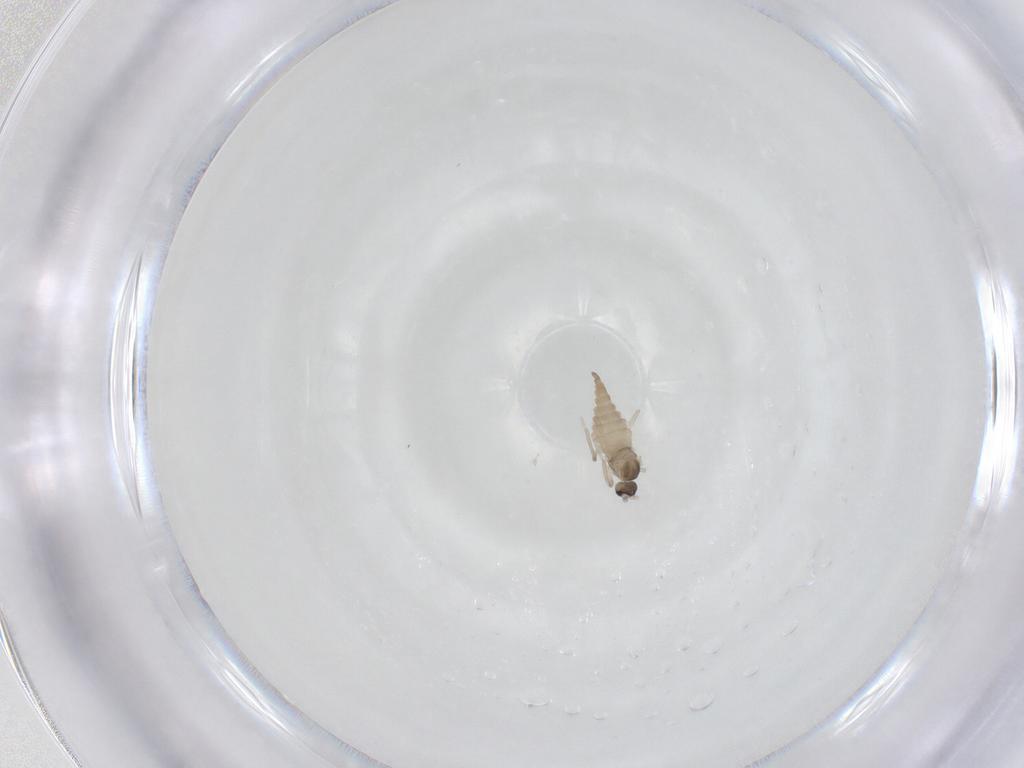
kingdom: Animalia
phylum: Arthropoda
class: Insecta
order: Diptera
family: Cecidomyiidae
